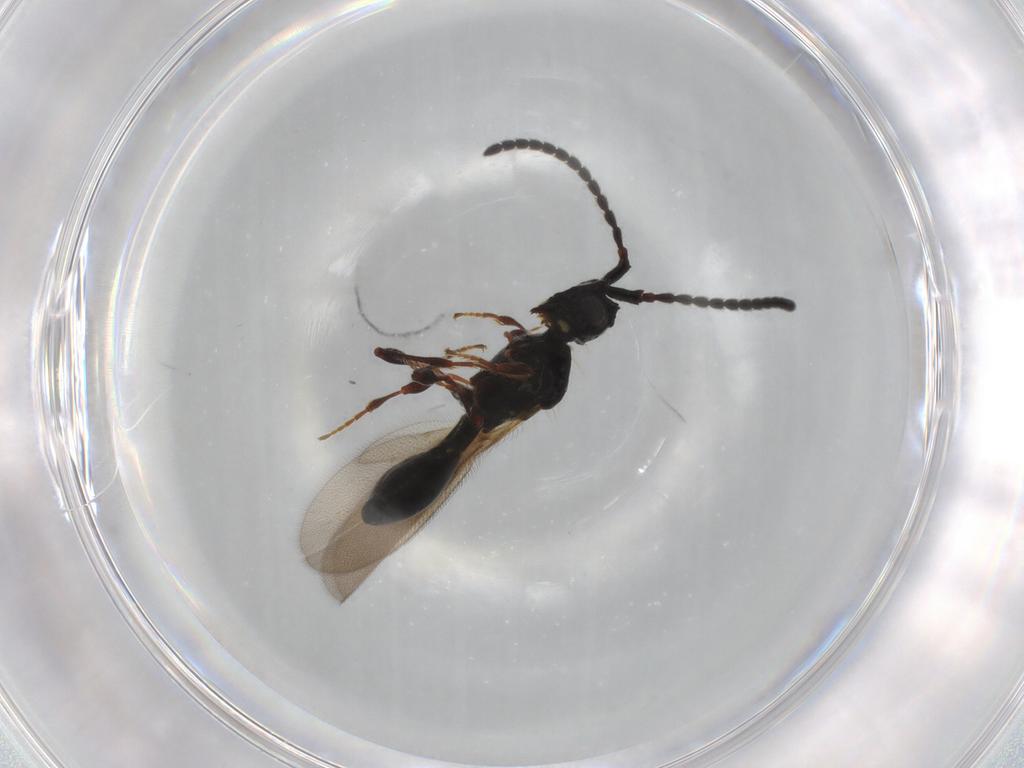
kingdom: Animalia
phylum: Arthropoda
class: Insecta
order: Hymenoptera
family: Diapriidae
